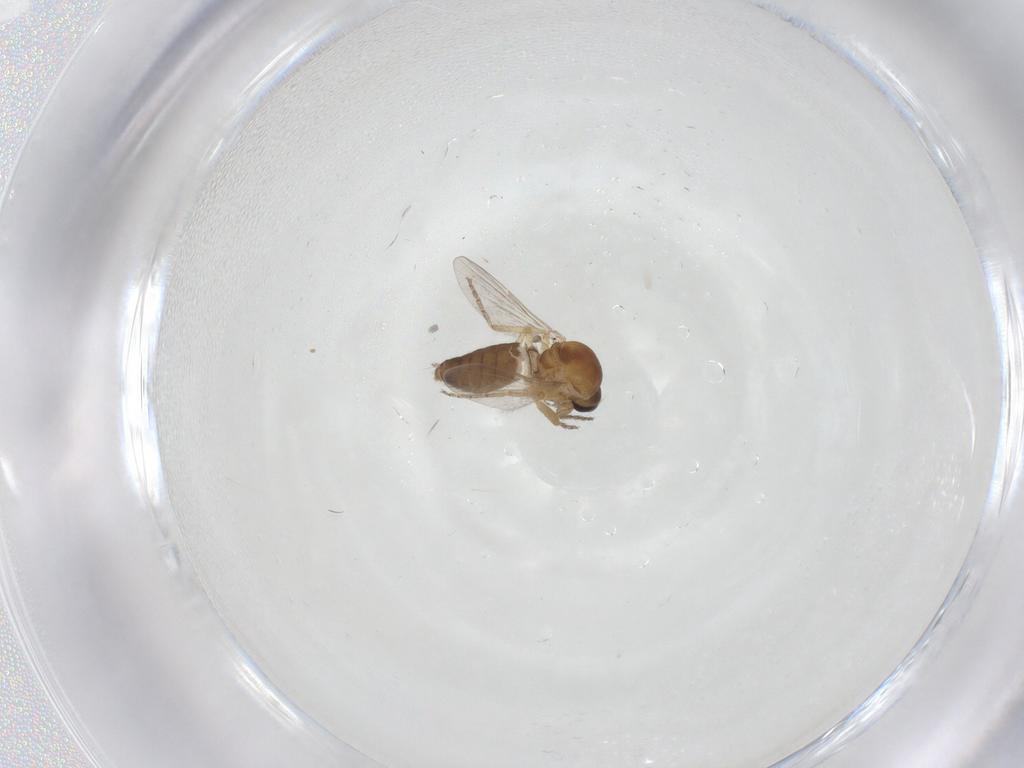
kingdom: Animalia
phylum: Arthropoda
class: Insecta
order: Diptera
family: Ceratopogonidae
